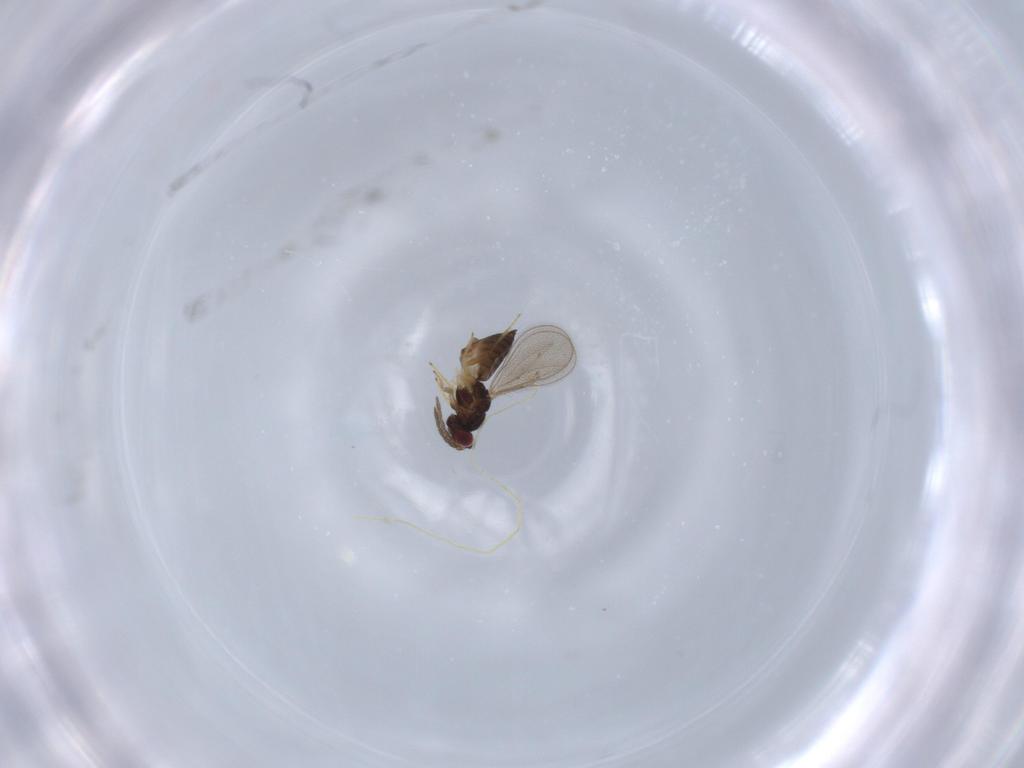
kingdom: Animalia
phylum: Arthropoda
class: Insecta
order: Hymenoptera
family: Eulophidae
